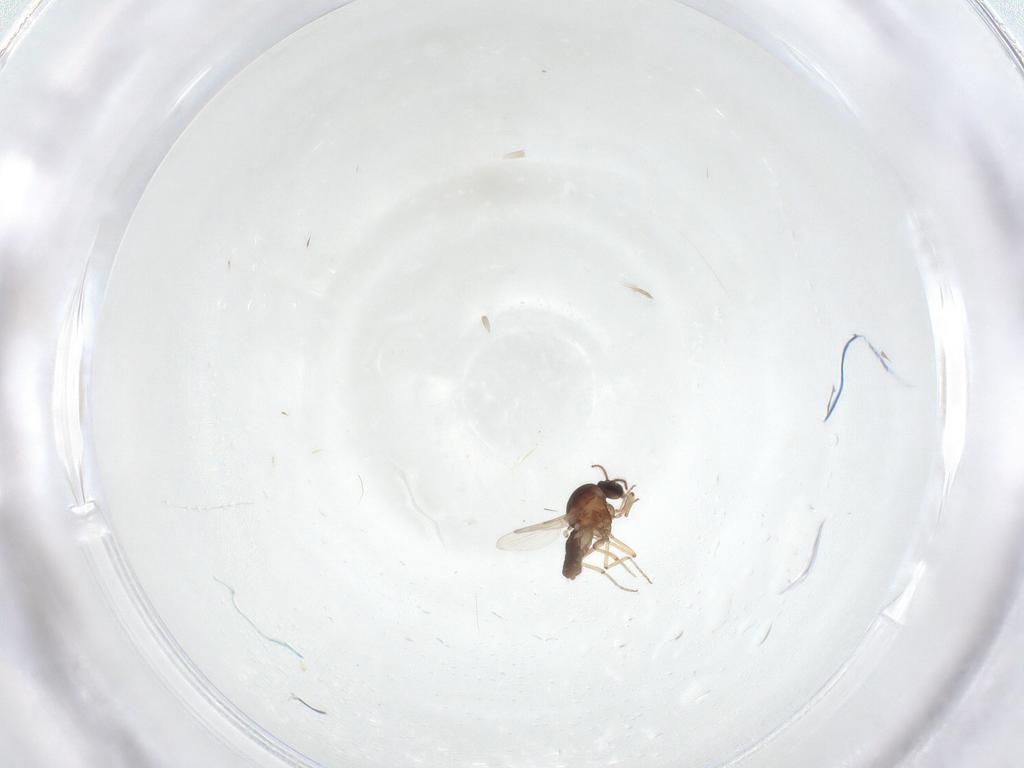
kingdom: Animalia
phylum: Arthropoda
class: Insecta
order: Diptera
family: Ceratopogonidae
